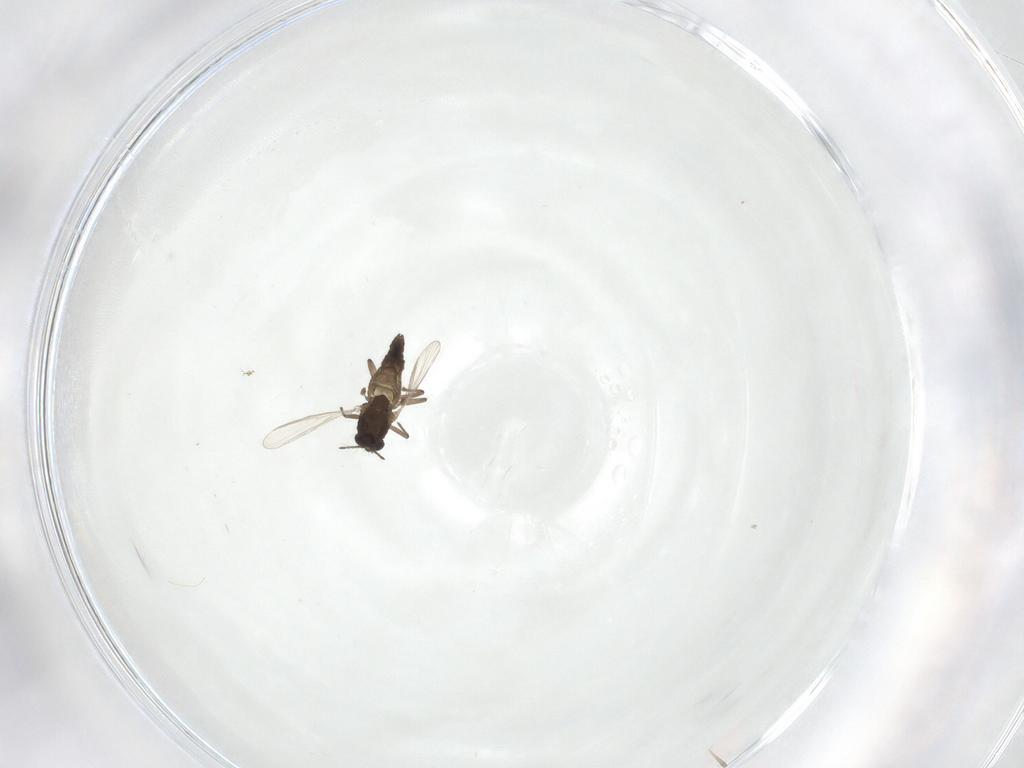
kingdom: Animalia
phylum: Arthropoda
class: Insecta
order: Diptera
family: Chironomidae
